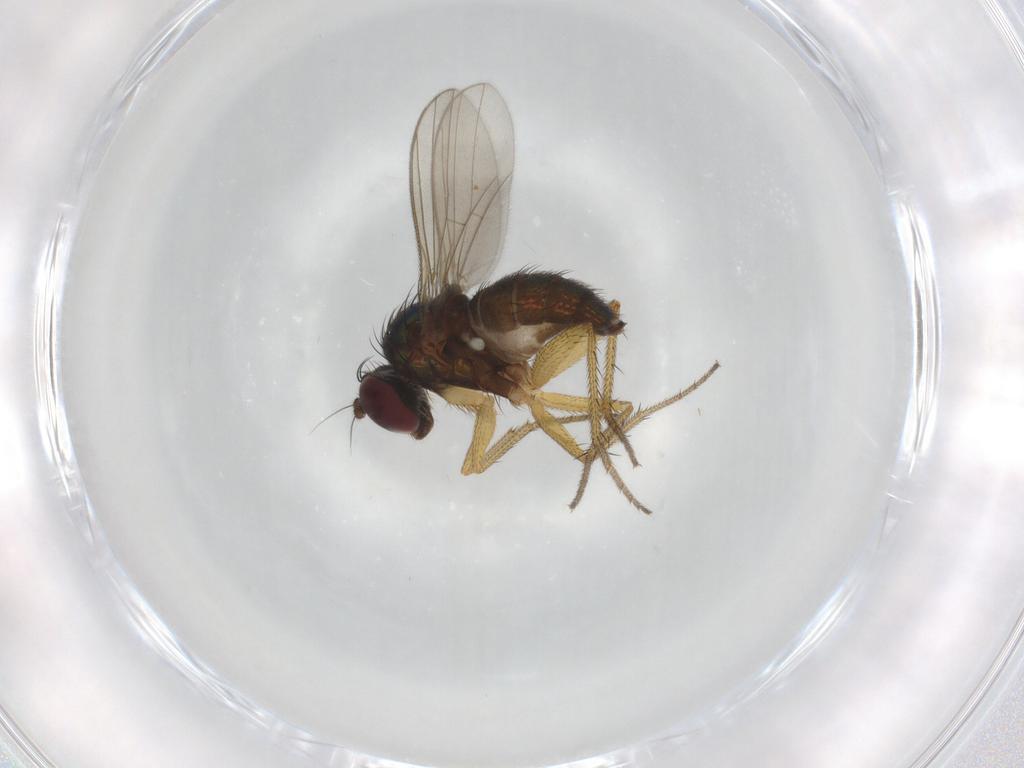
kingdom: Animalia
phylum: Arthropoda
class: Insecta
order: Diptera
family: Dolichopodidae
